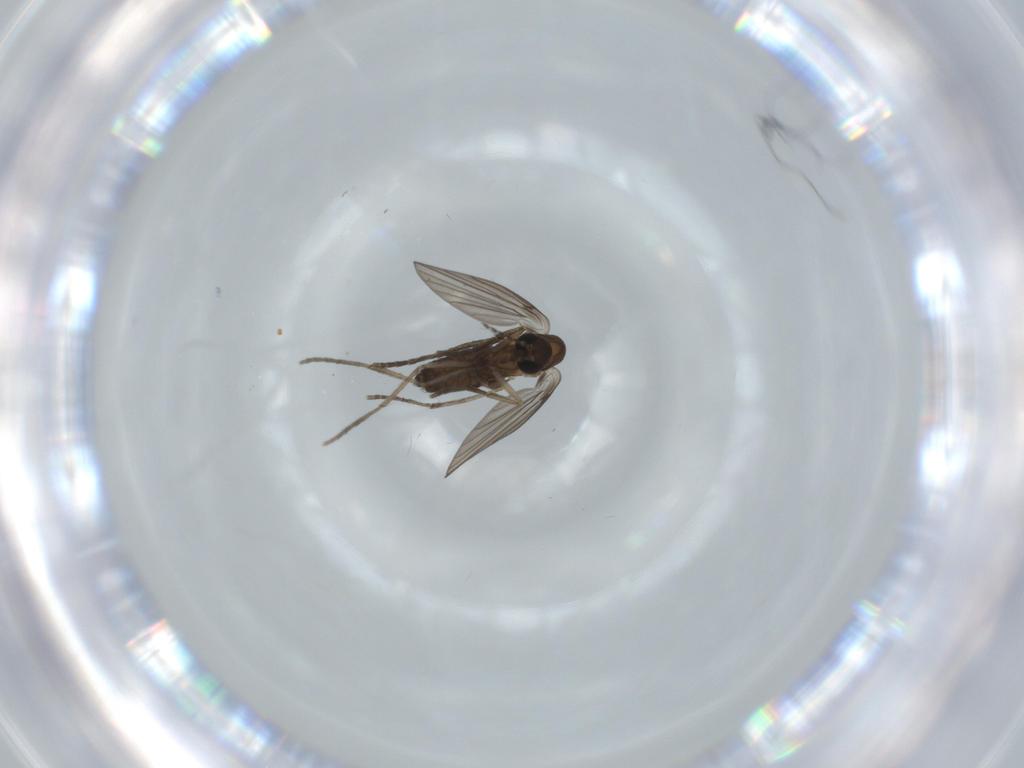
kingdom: Animalia
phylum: Arthropoda
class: Insecta
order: Diptera
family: Psychodidae
